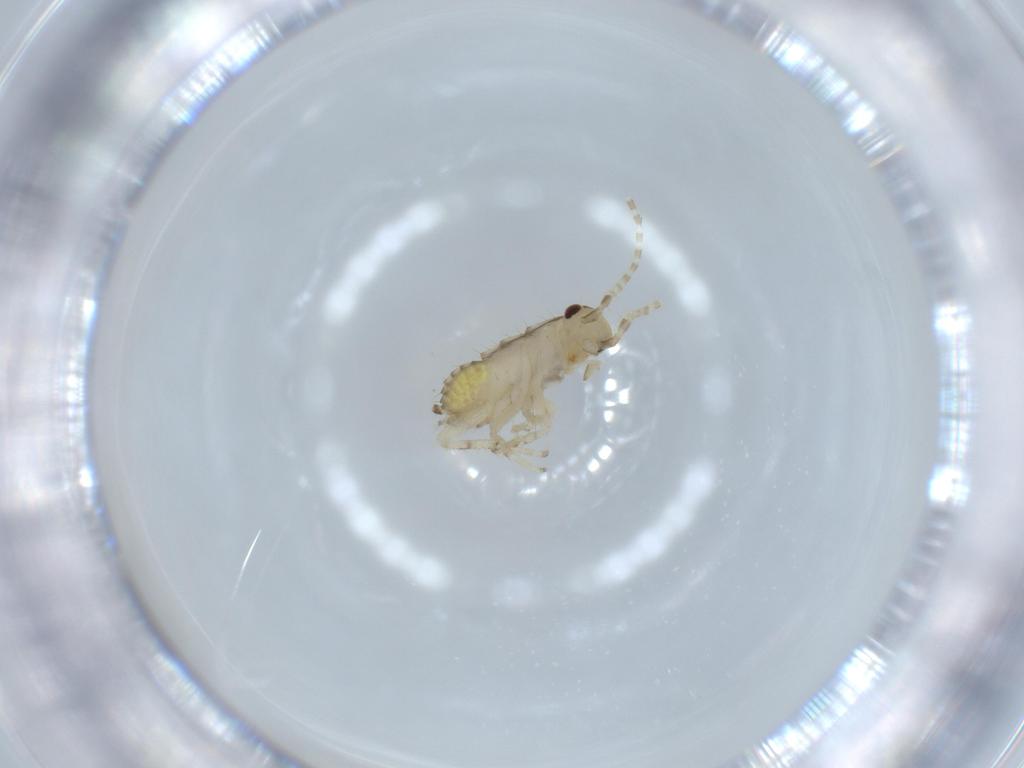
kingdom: Animalia
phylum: Arthropoda
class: Insecta
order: Blattodea
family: Ectobiidae
